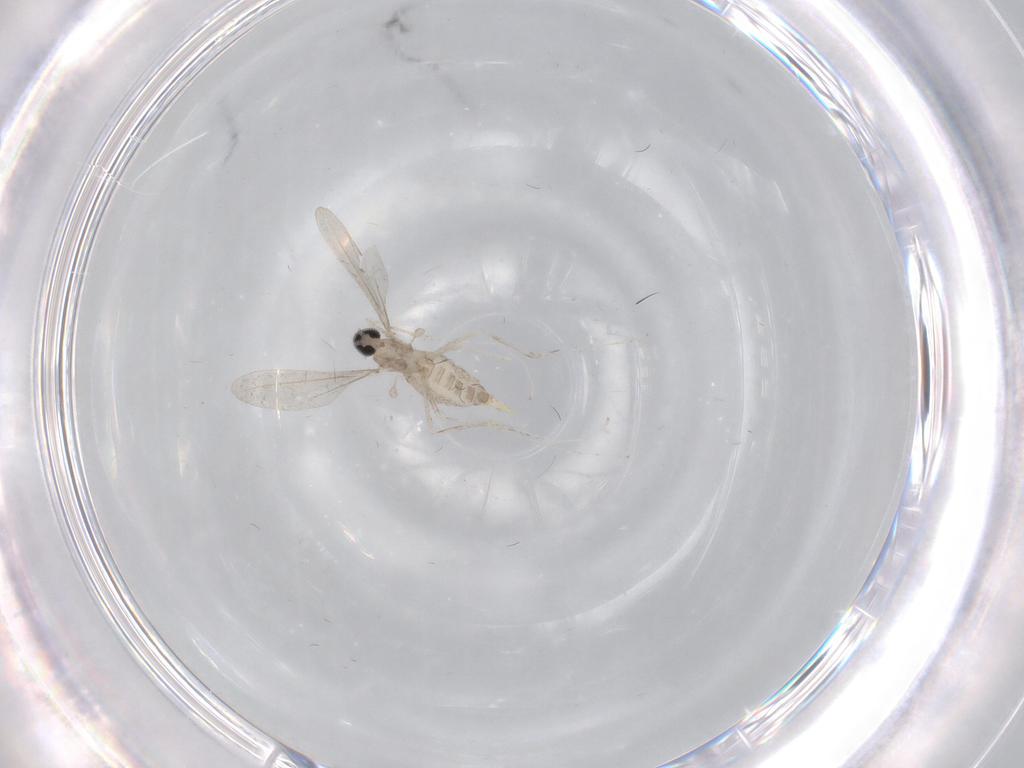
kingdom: Animalia
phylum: Arthropoda
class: Insecta
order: Diptera
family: Cecidomyiidae
